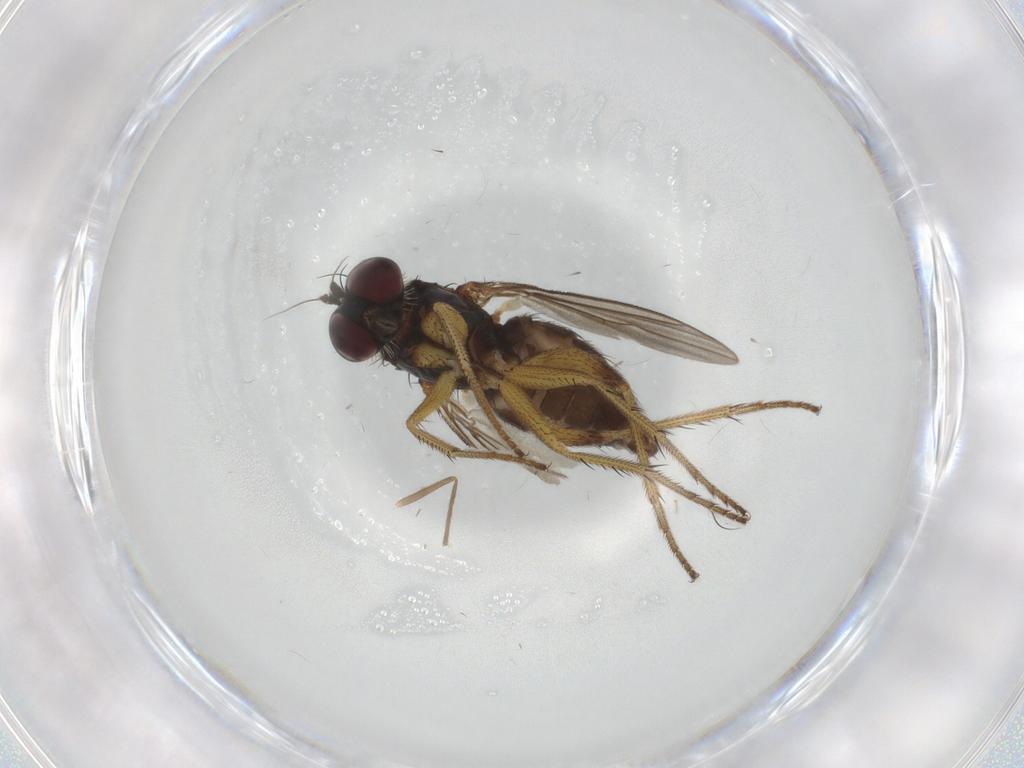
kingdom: Animalia
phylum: Arthropoda
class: Insecta
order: Diptera
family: Dolichopodidae
